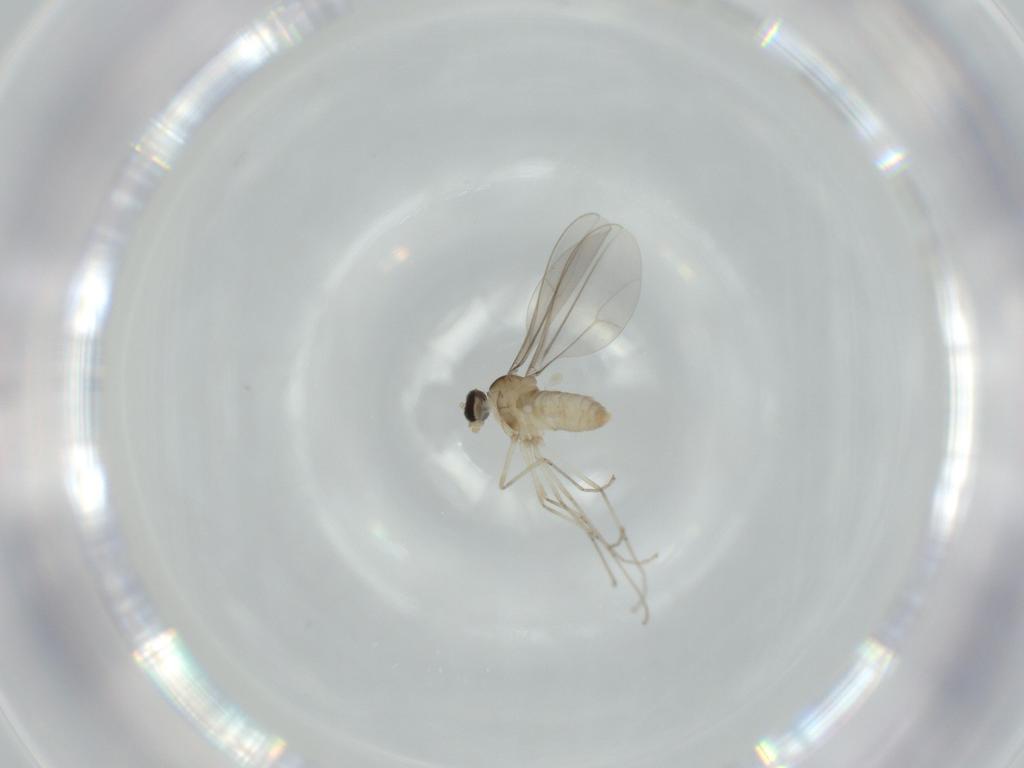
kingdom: Animalia
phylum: Arthropoda
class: Insecta
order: Diptera
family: Cecidomyiidae
